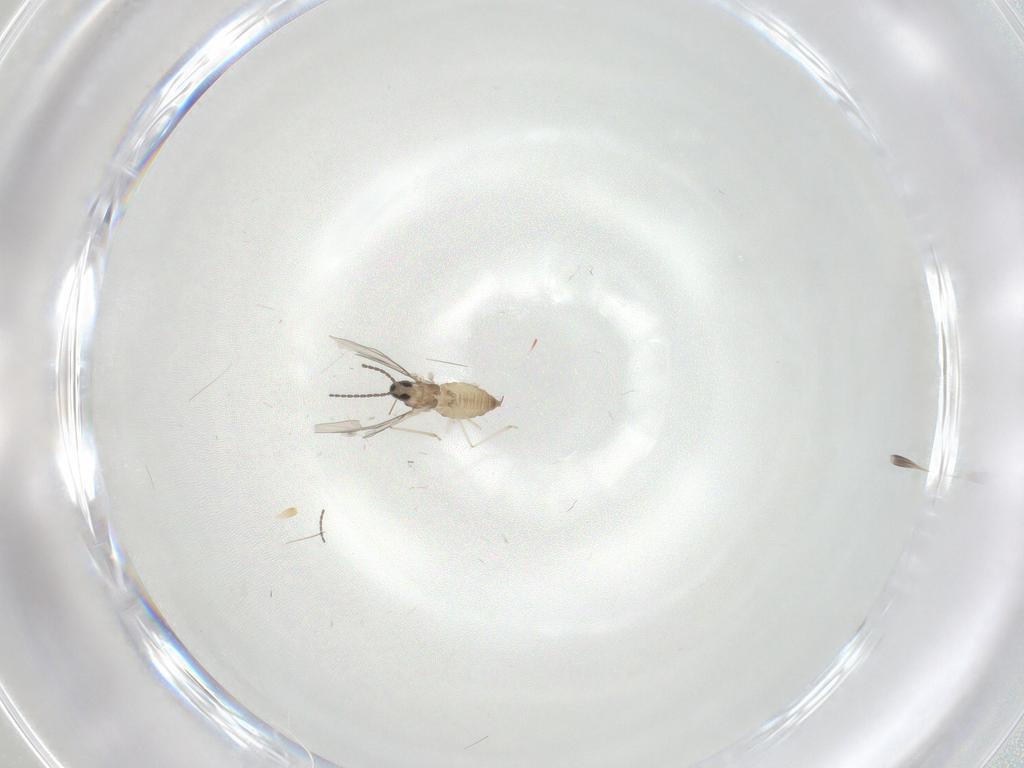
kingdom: Animalia
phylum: Arthropoda
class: Insecta
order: Diptera
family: Cecidomyiidae
